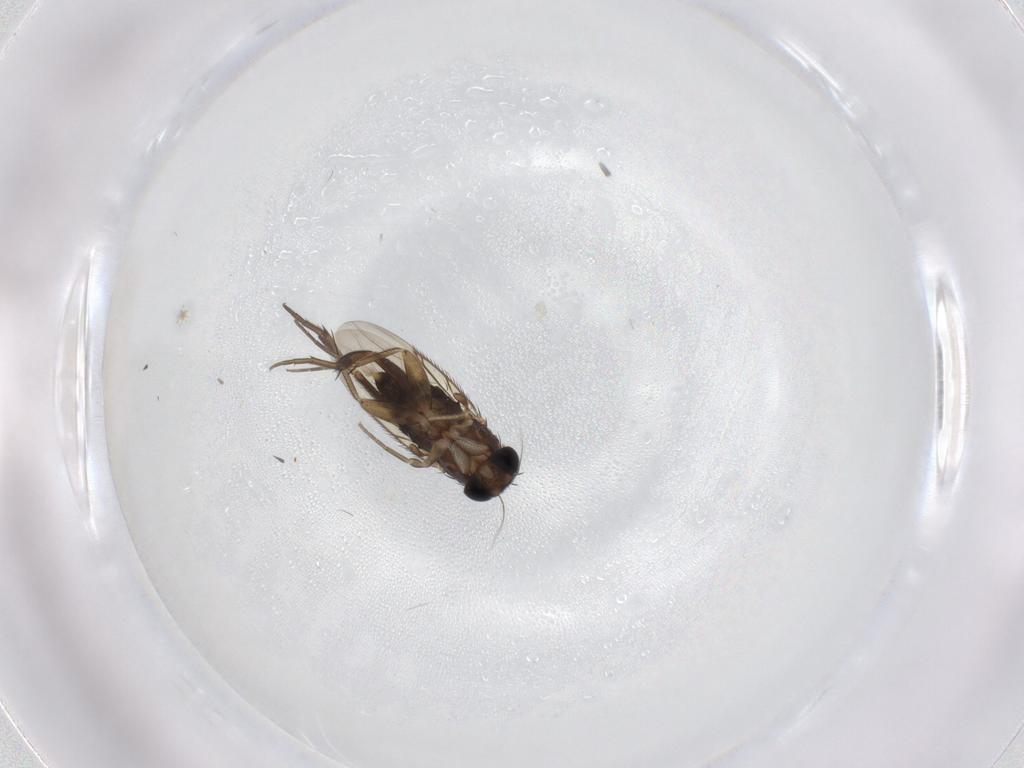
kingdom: Animalia
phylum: Arthropoda
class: Insecta
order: Diptera
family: Phoridae
